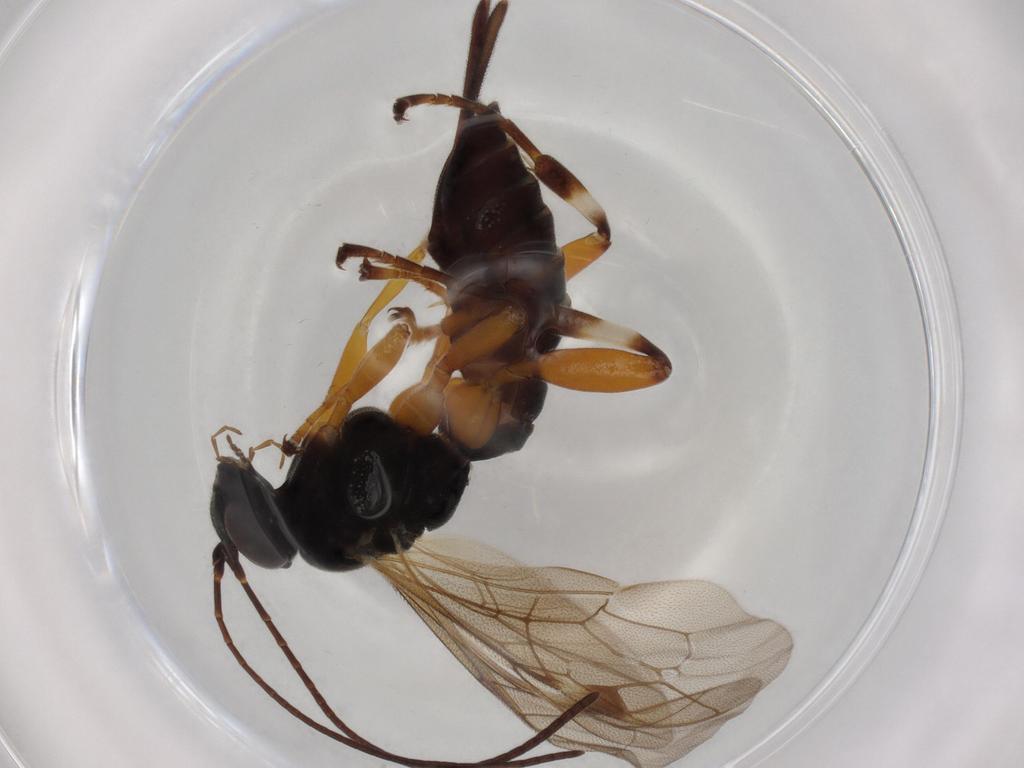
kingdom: Animalia
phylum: Arthropoda
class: Insecta
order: Hymenoptera
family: Ichneumonidae
